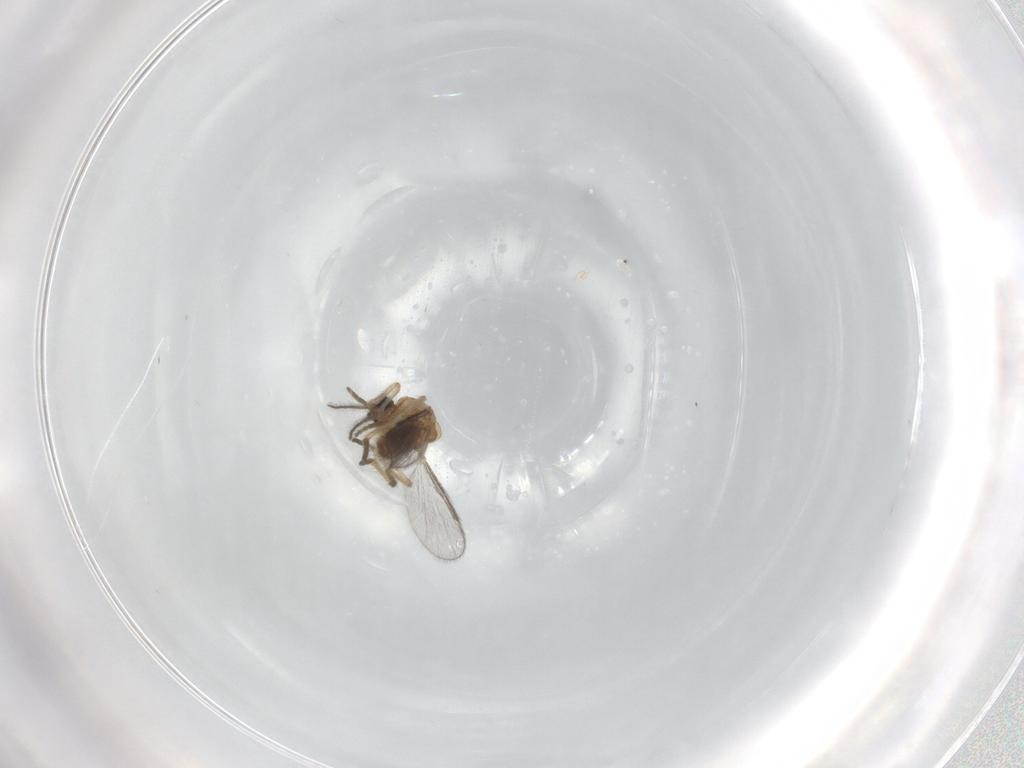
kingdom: Animalia
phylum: Arthropoda
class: Insecta
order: Diptera
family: Ceratopogonidae
